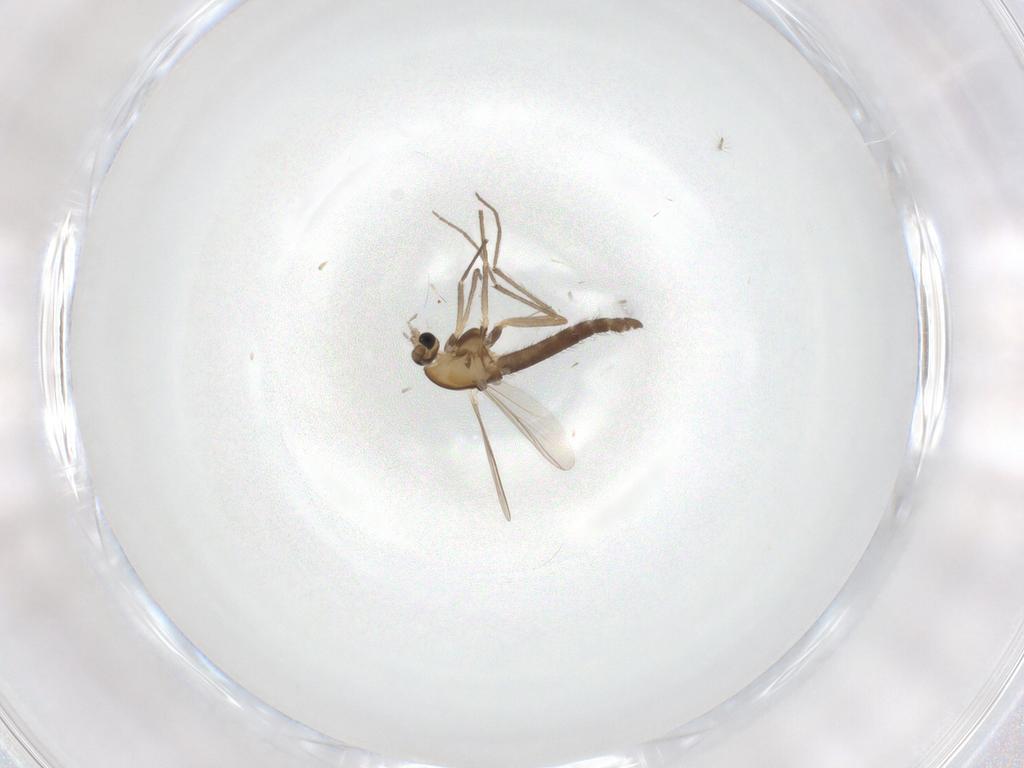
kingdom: Animalia
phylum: Arthropoda
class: Insecta
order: Diptera
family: Chironomidae
